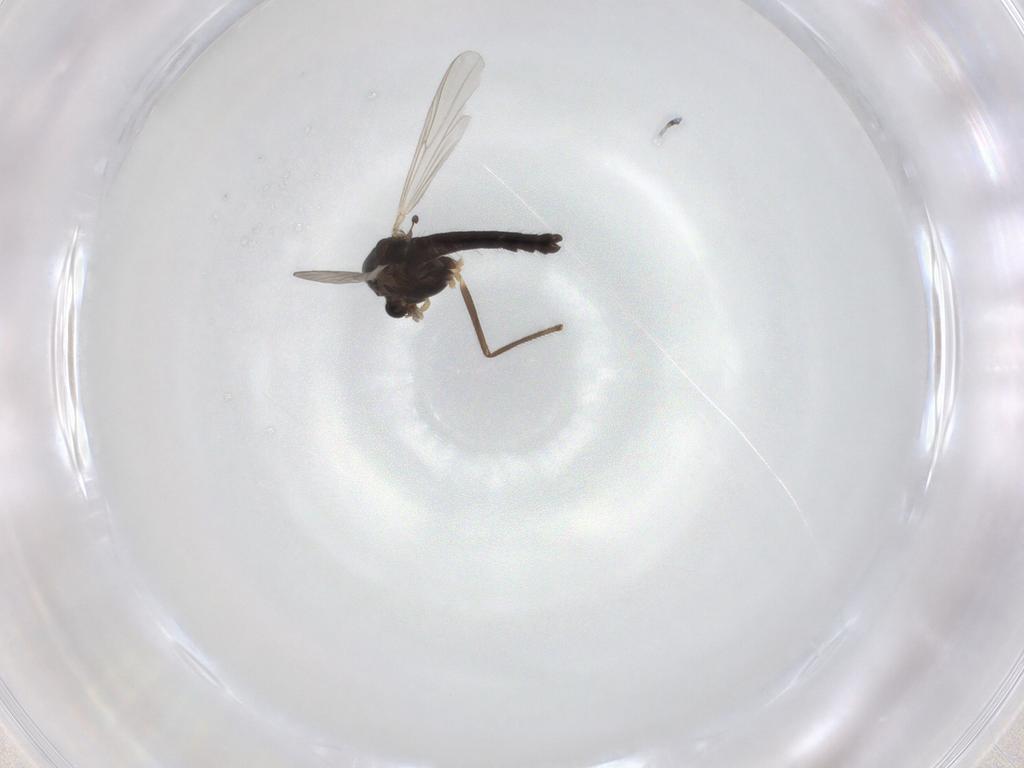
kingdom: Animalia
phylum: Arthropoda
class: Insecta
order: Diptera
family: Chironomidae
